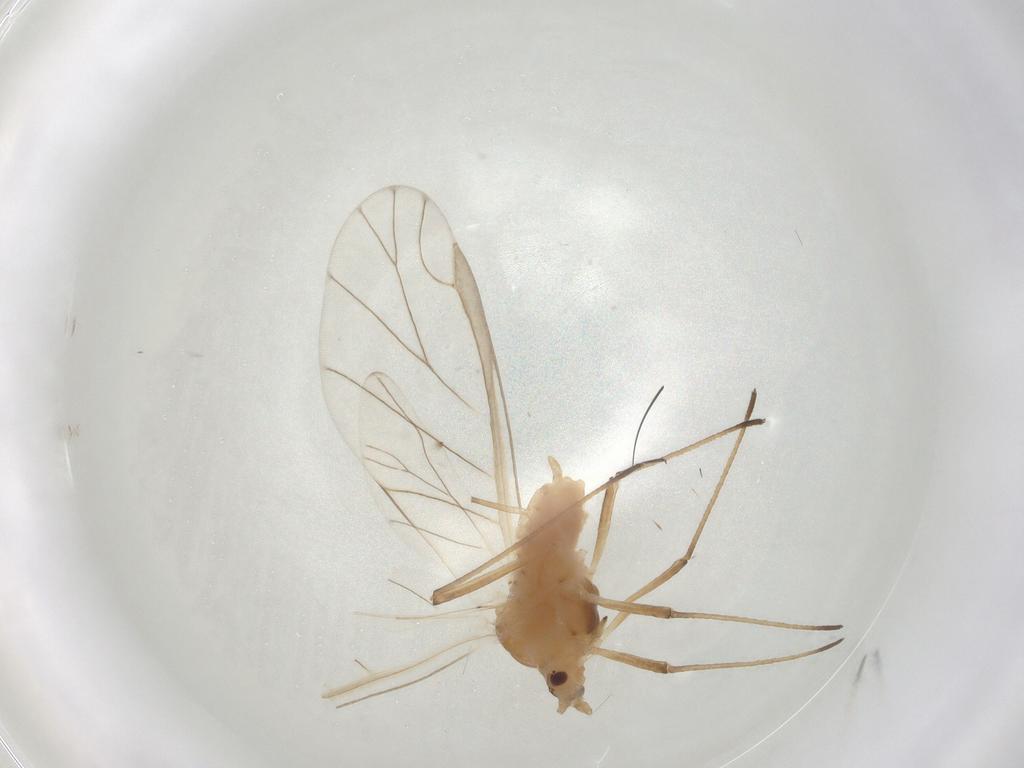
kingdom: Animalia
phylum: Arthropoda
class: Insecta
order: Hemiptera
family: Aphididae
